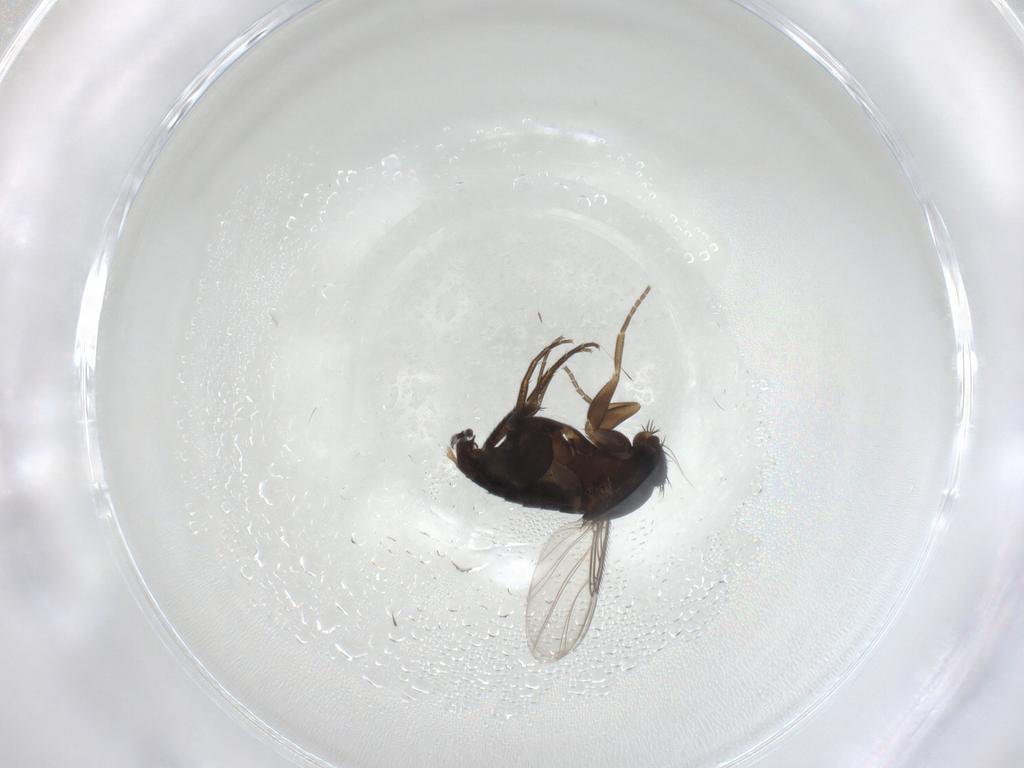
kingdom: Animalia
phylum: Arthropoda
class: Insecta
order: Diptera
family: Phoridae
